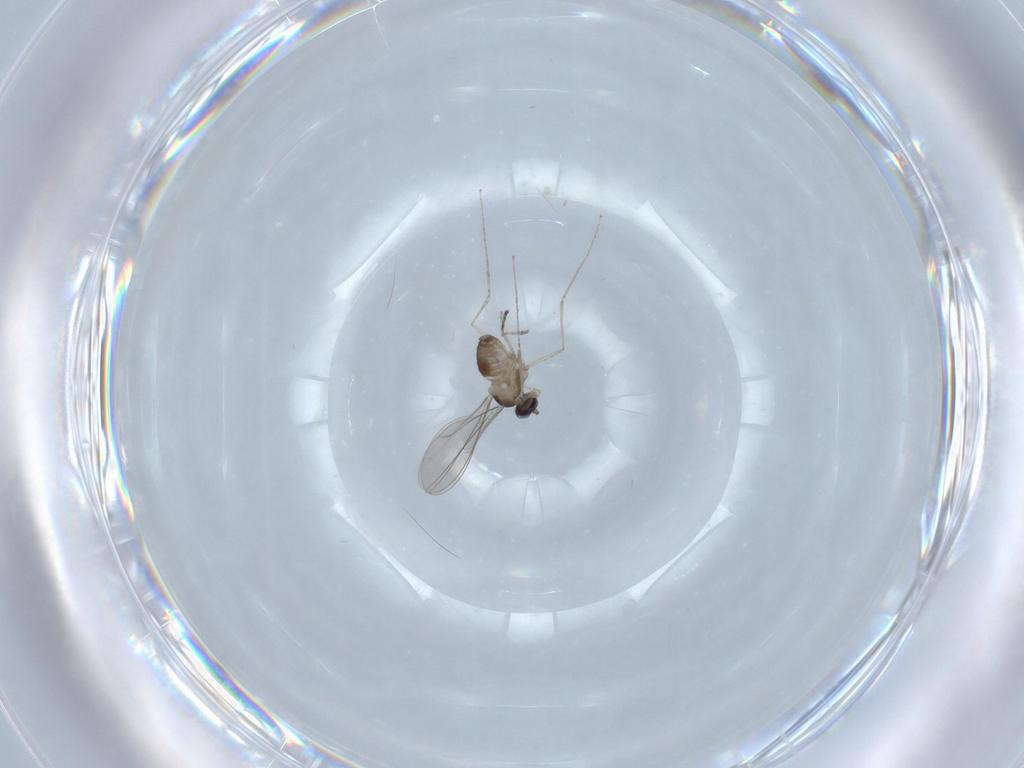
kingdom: Animalia
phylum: Arthropoda
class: Insecta
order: Diptera
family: Cecidomyiidae
